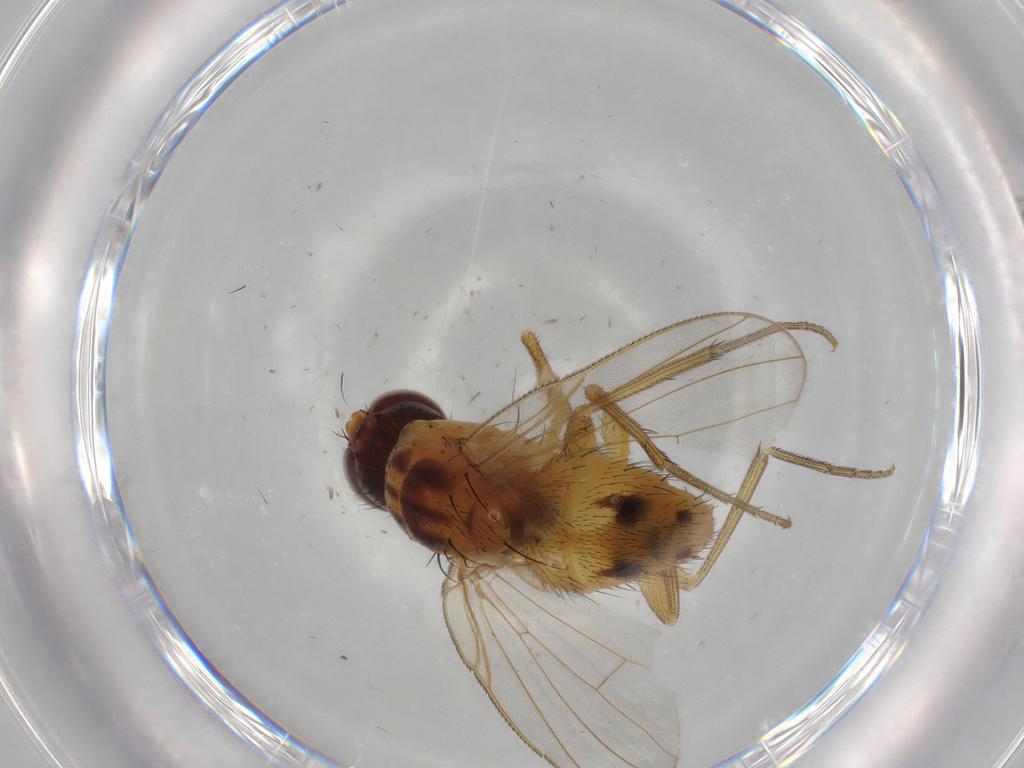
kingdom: Animalia
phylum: Arthropoda
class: Insecta
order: Diptera
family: Muscidae
